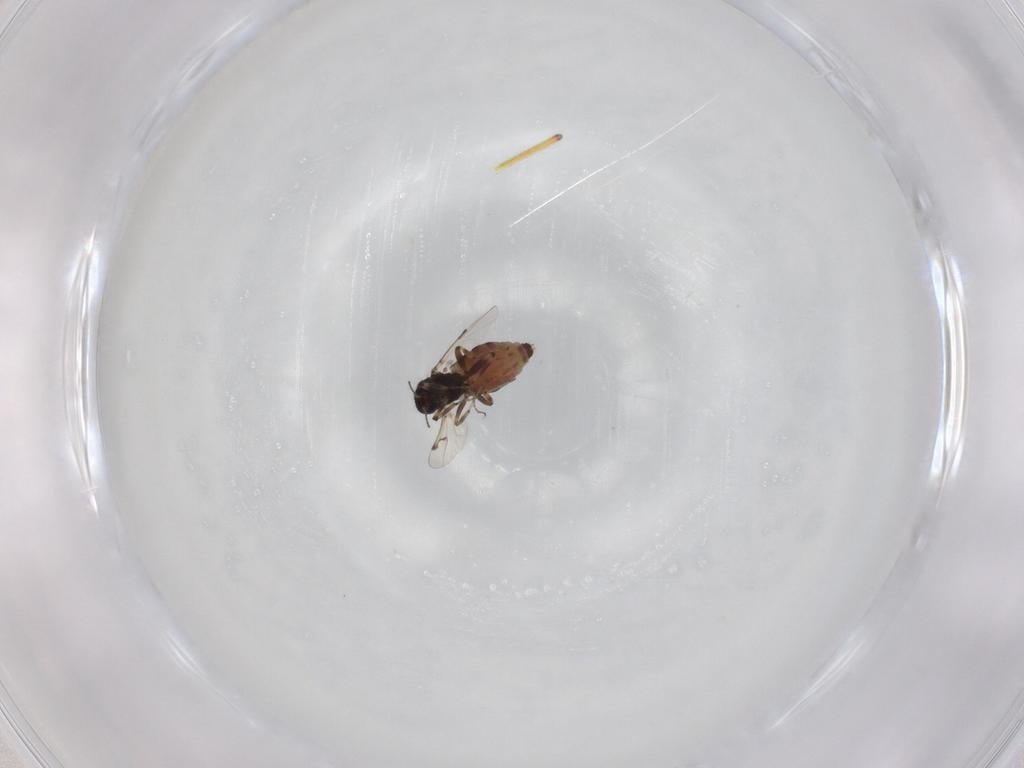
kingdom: Animalia
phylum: Arthropoda
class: Insecta
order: Diptera
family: Ceratopogonidae
